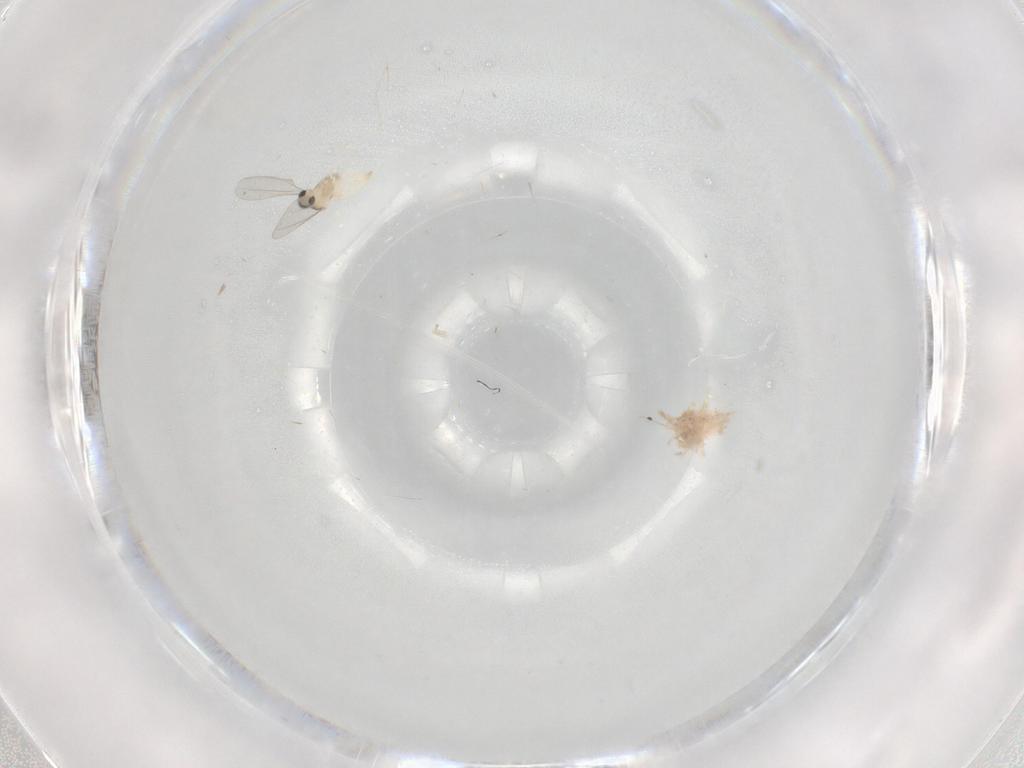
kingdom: Animalia
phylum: Arthropoda
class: Insecta
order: Diptera
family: Cecidomyiidae
